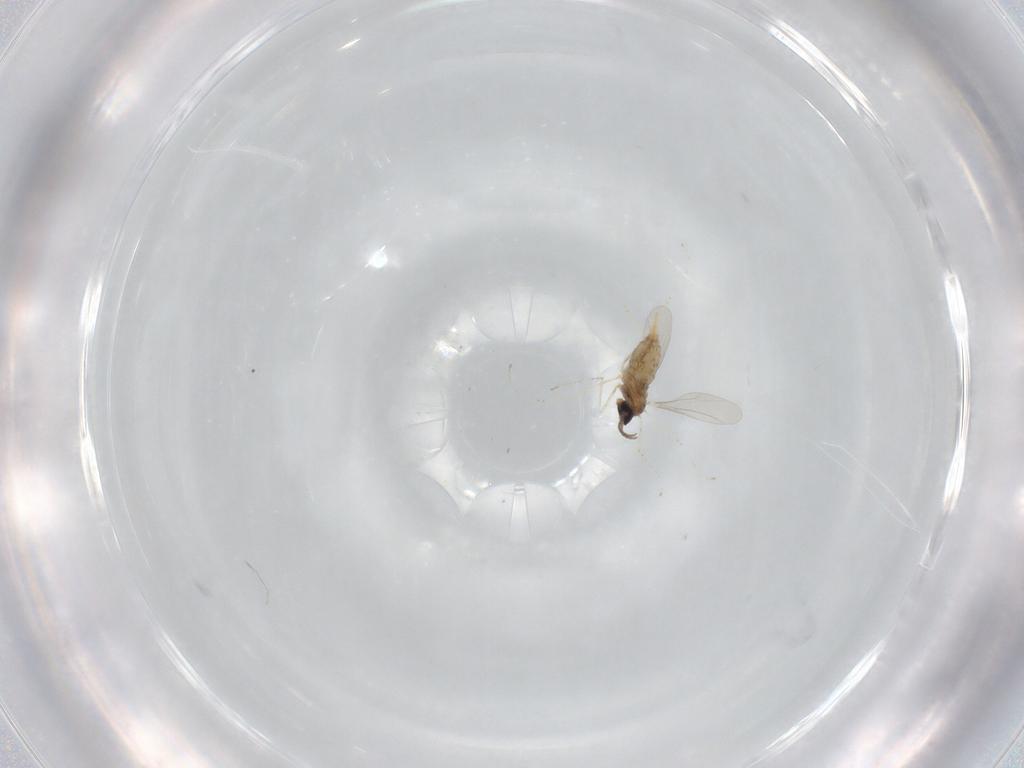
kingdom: Animalia
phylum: Arthropoda
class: Insecta
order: Diptera
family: Cecidomyiidae
